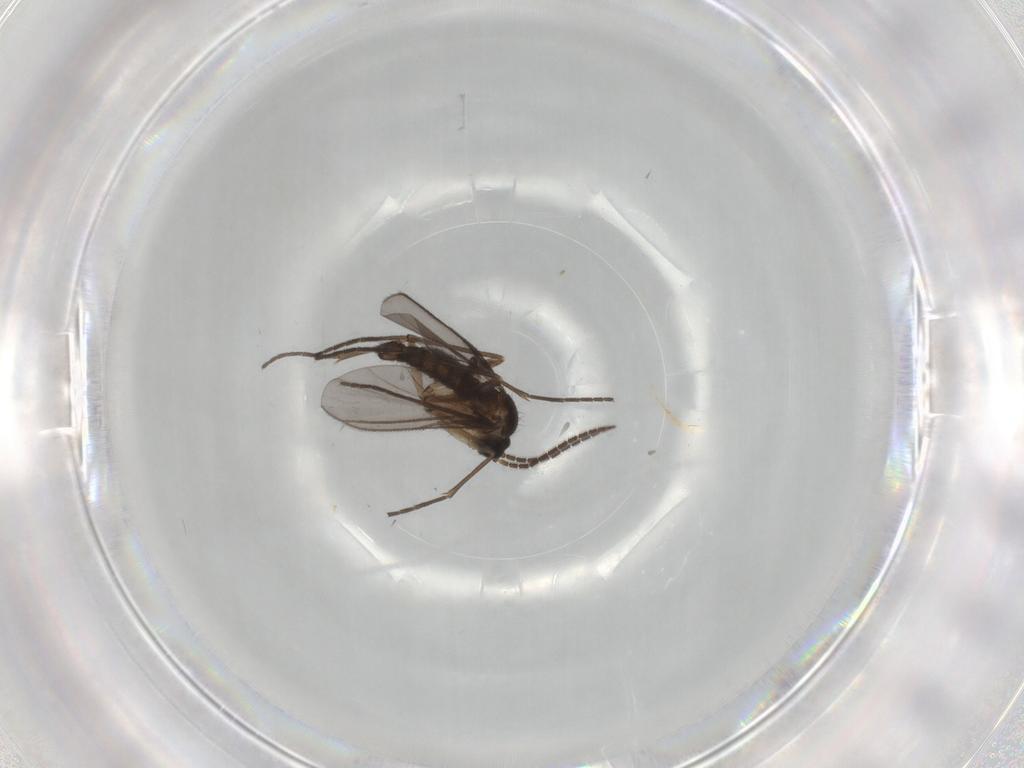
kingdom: Animalia
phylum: Arthropoda
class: Insecta
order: Diptera
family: Sciaridae
